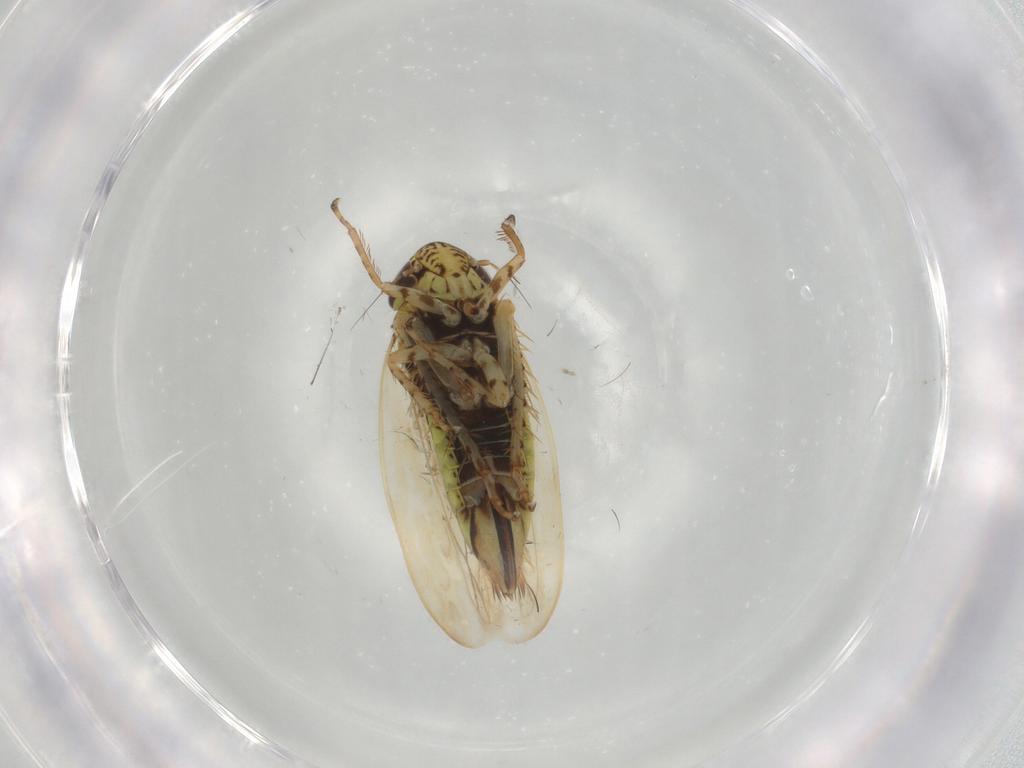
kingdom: Animalia
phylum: Arthropoda
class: Insecta
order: Hemiptera
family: Cicadellidae
